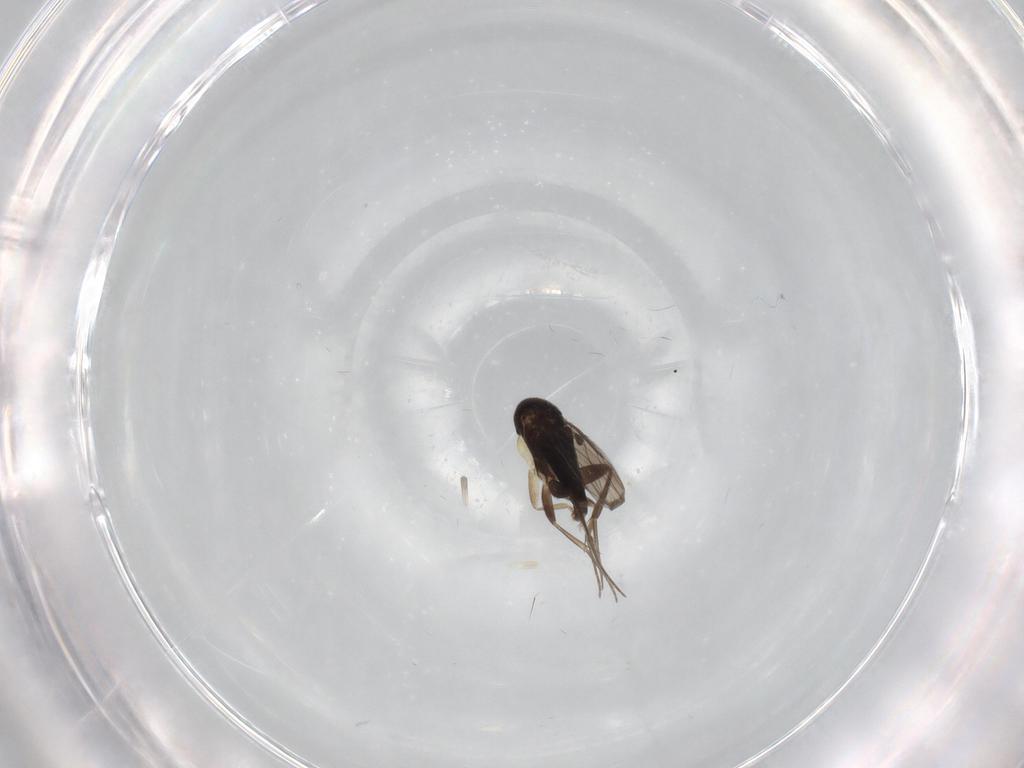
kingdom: Animalia
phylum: Arthropoda
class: Insecta
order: Diptera
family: Phoridae
